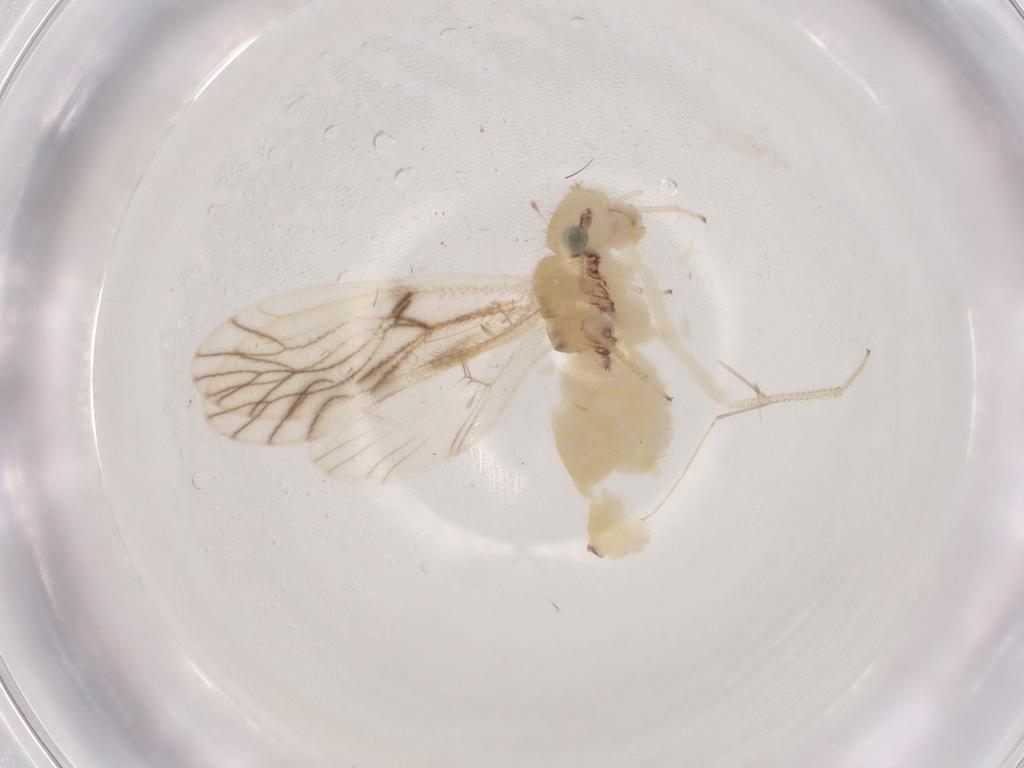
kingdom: Animalia
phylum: Arthropoda
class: Insecta
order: Psocodea
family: Philotarsidae
